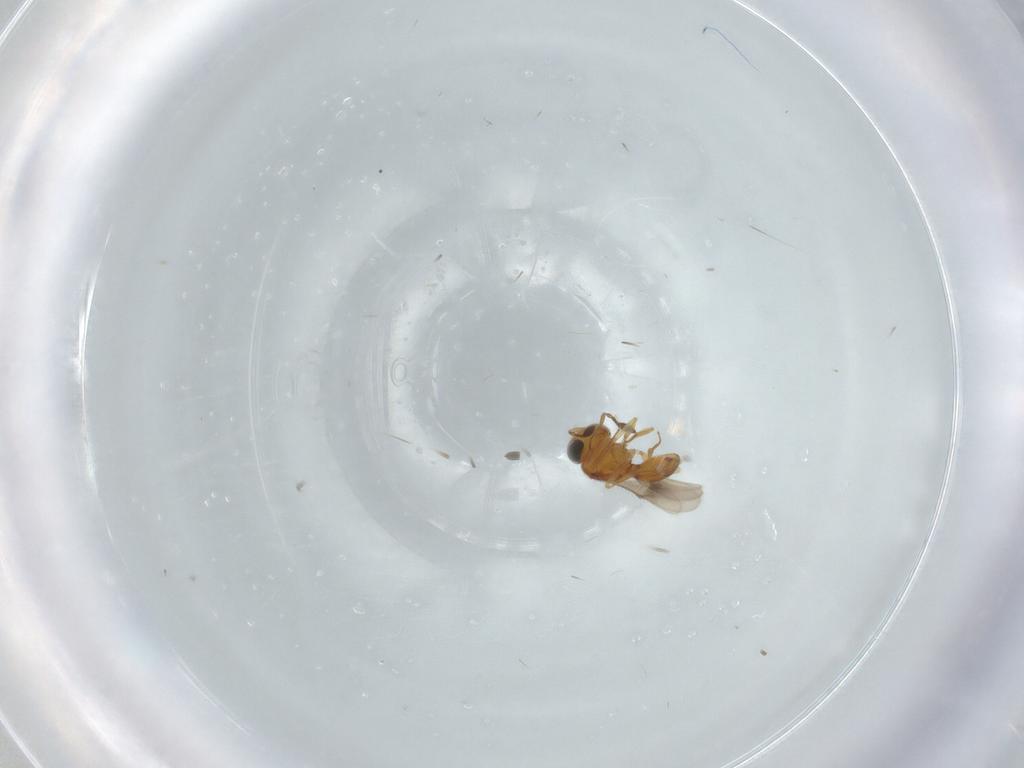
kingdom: Animalia
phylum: Arthropoda
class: Insecta
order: Hymenoptera
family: Scelionidae
